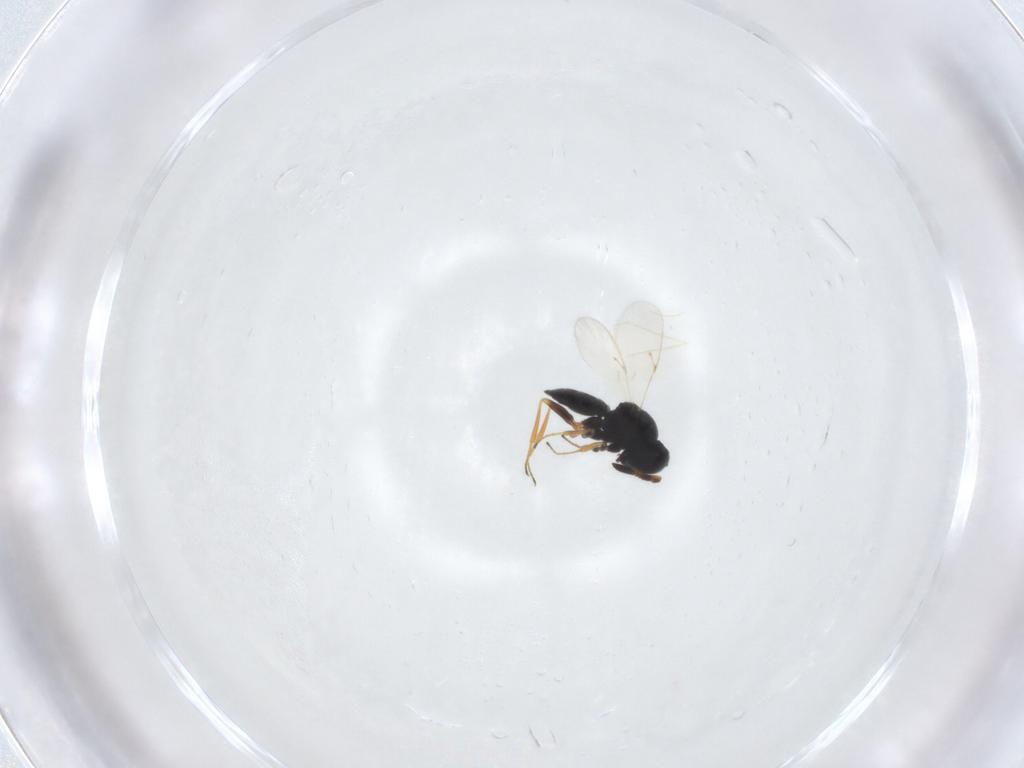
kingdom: Animalia
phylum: Arthropoda
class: Insecta
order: Hymenoptera
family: Scelionidae
